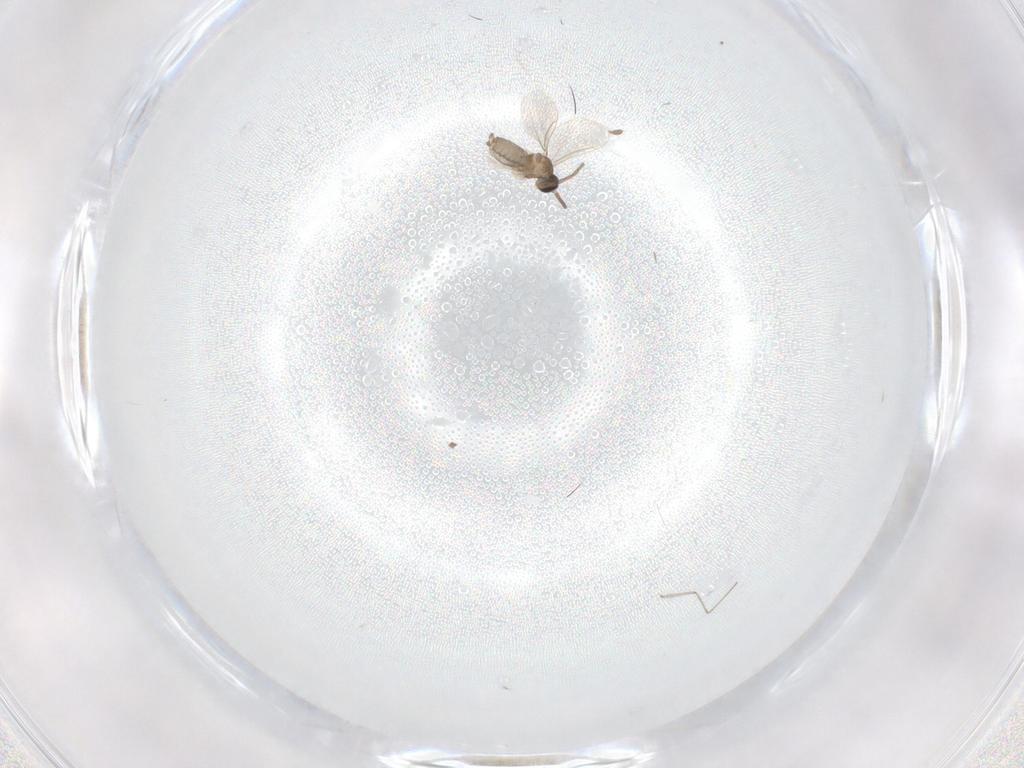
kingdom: Animalia
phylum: Arthropoda
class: Insecta
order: Diptera
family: Cecidomyiidae
